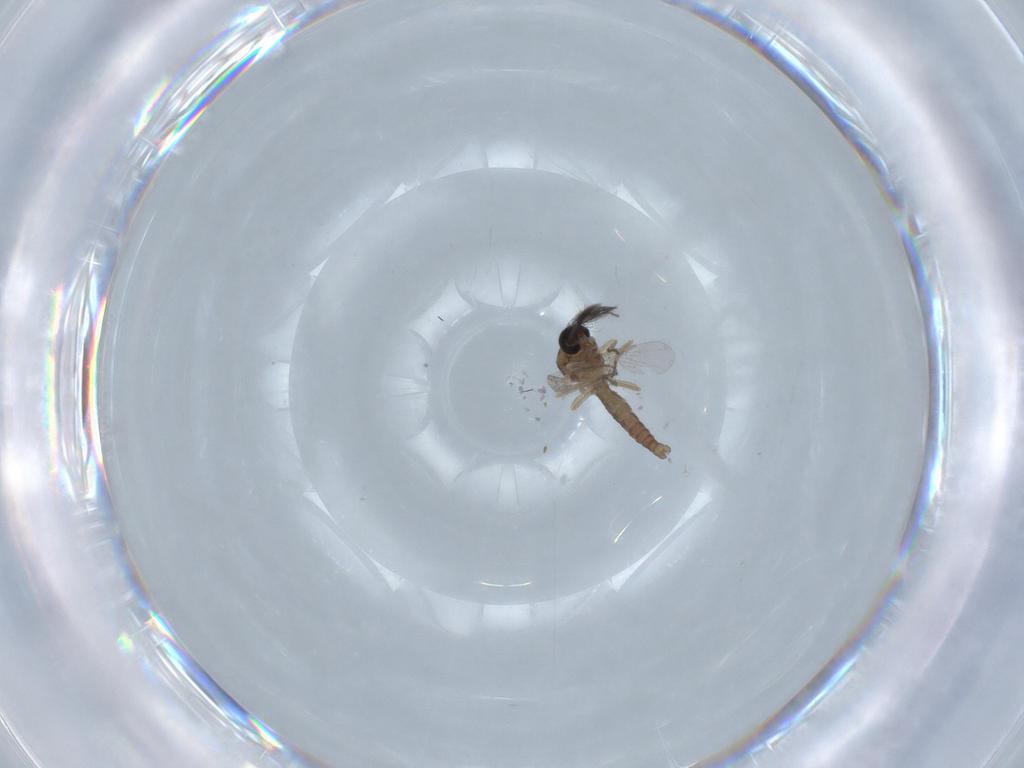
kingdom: Animalia
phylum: Arthropoda
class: Insecta
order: Diptera
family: Ceratopogonidae
